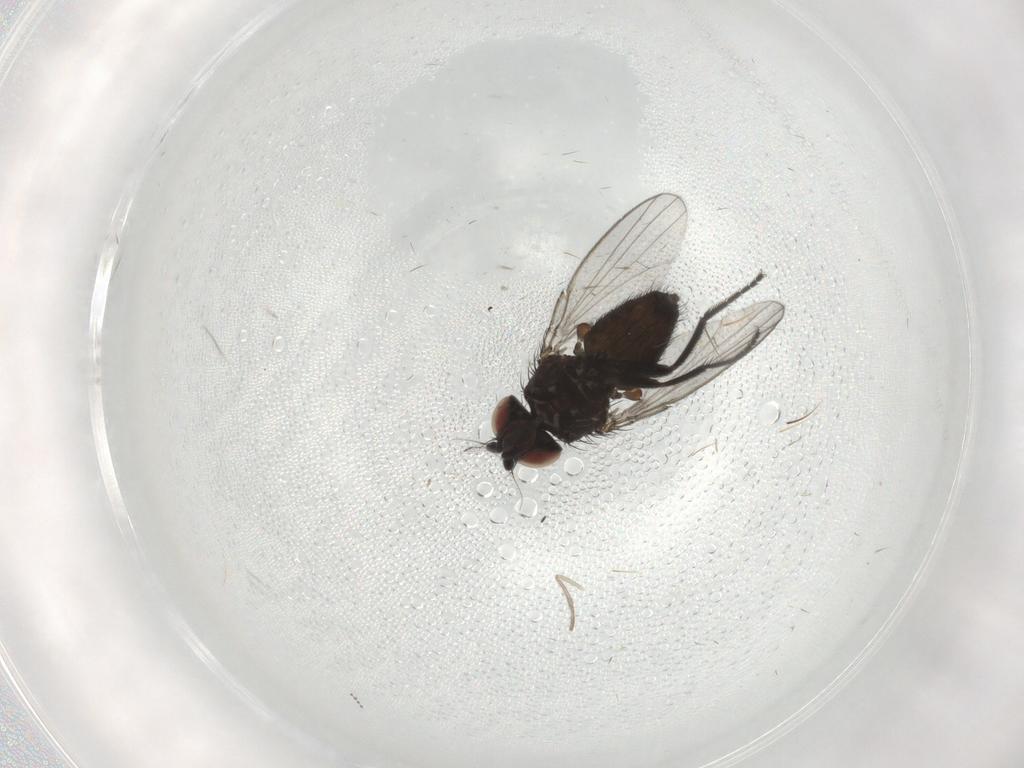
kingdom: Animalia
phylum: Arthropoda
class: Insecta
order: Diptera
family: Milichiidae
